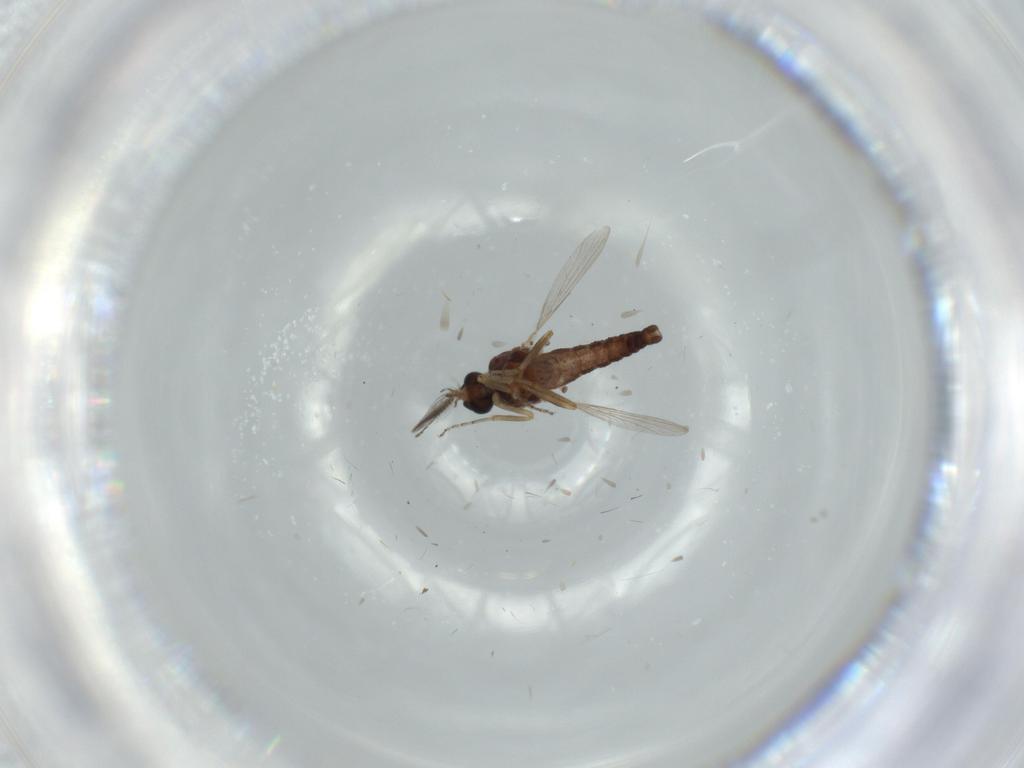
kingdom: Animalia
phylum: Arthropoda
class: Insecta
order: Diptera
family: Ceratopogonidae
